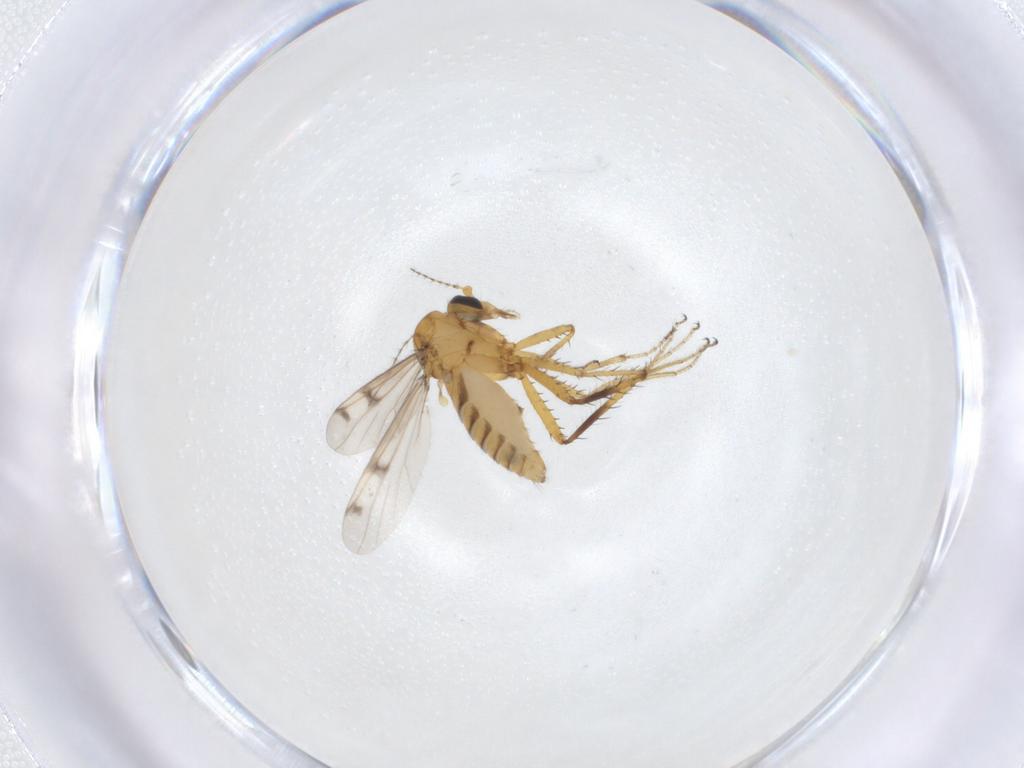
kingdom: Animalia
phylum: Arthropoda
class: Insecta
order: Diptera
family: Ceratopogonidae
